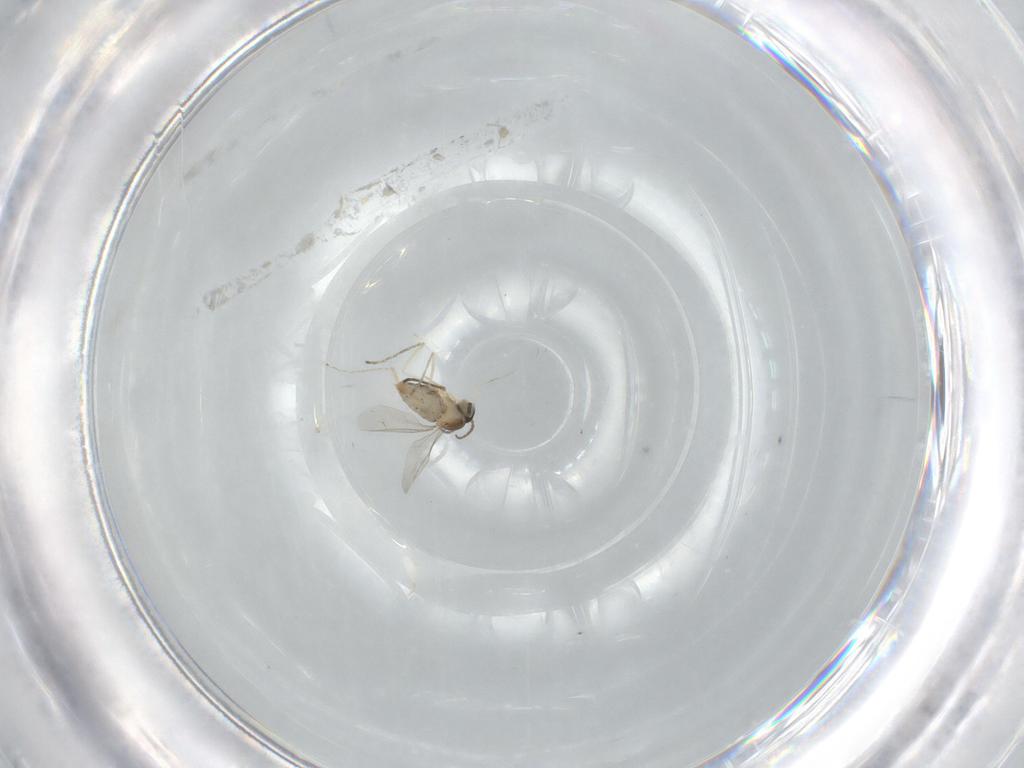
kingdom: Animalia
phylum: Arthropoda
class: Insecta
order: Diptera
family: Cecidomyiidae
